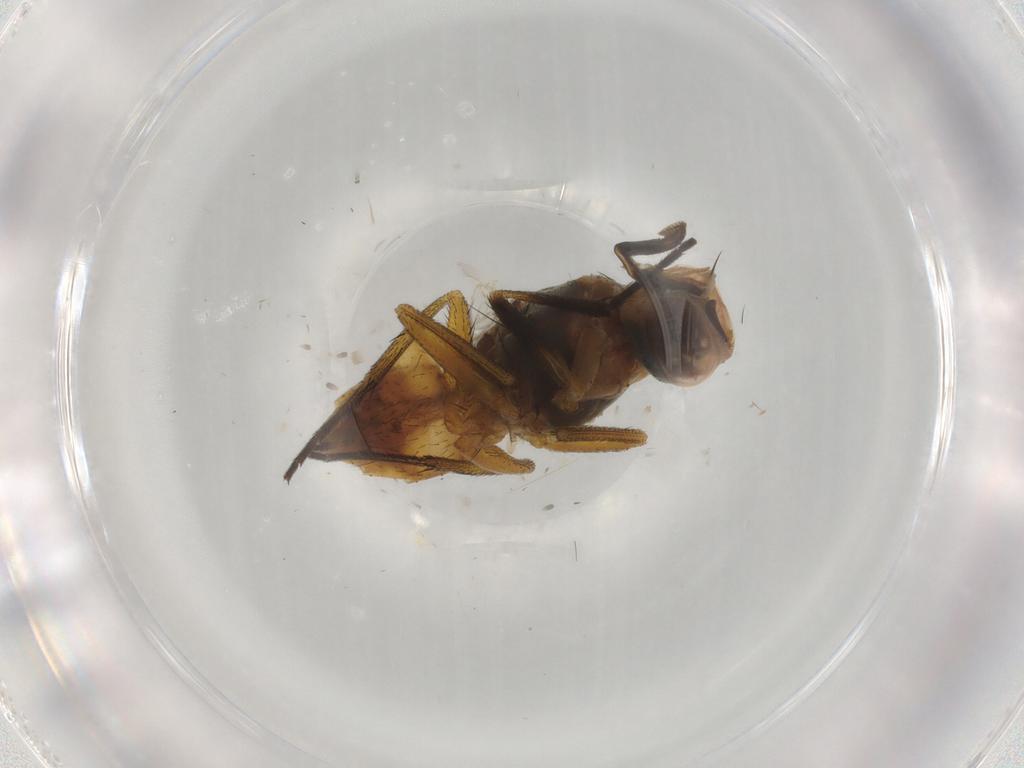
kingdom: Animalia
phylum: Arthropoda
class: Insecta
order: Diptera
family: Muscidae
